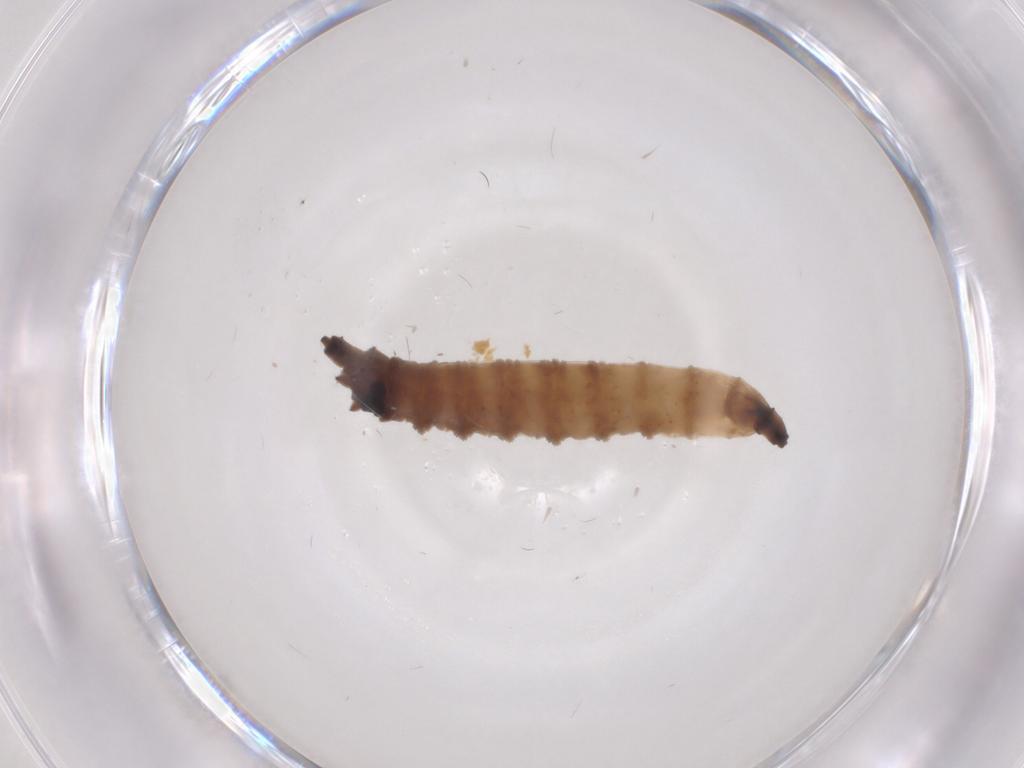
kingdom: Animalia
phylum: Arthropoda
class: Insecta
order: Diptera
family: Drosophilidae
